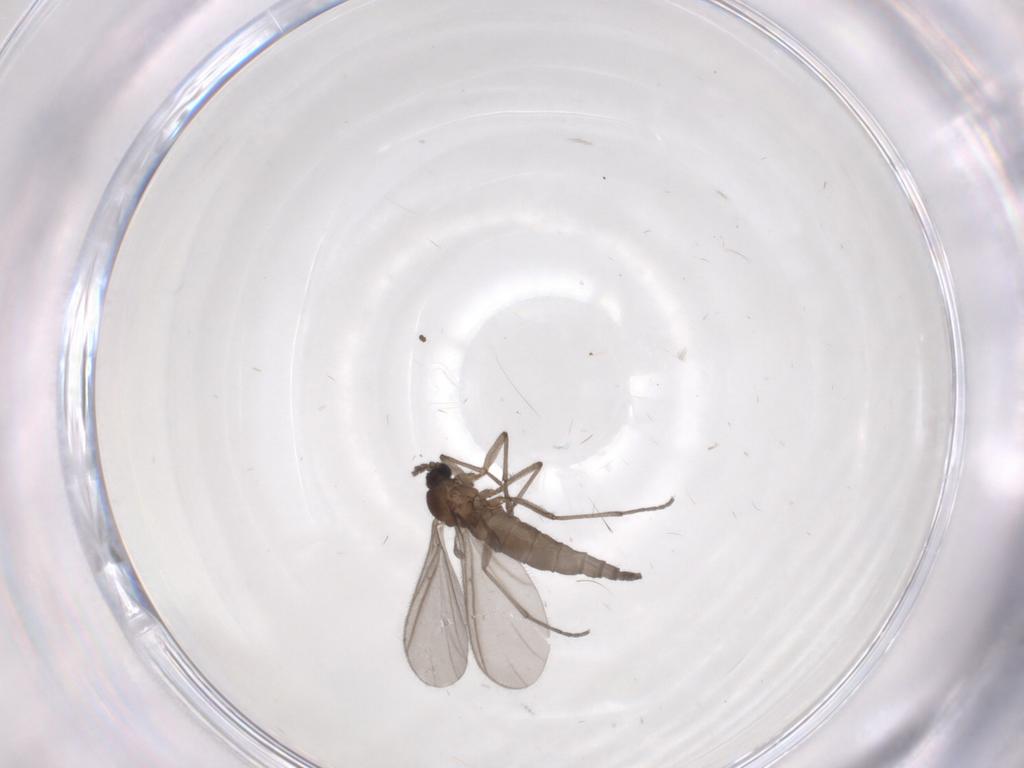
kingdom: Animalia
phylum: Arthropoda
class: Insecta
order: Diptera
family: Sciaridae
